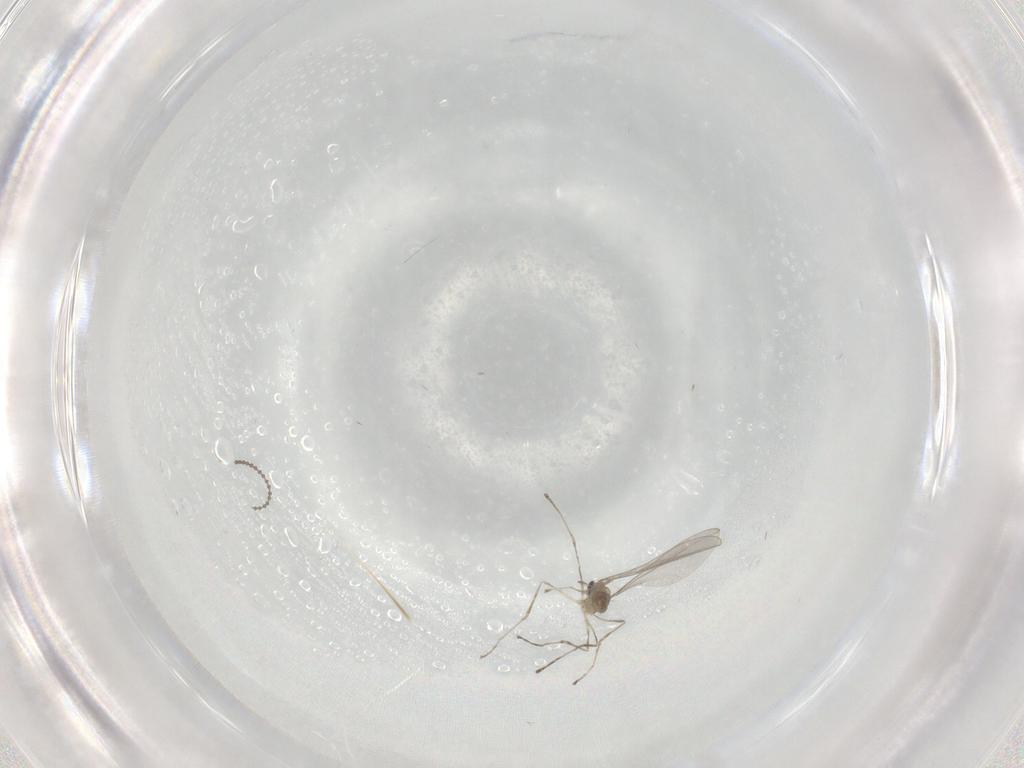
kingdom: Animalia
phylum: Arthropoda
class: Insecta
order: Diptera
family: Cecidomyiidae
